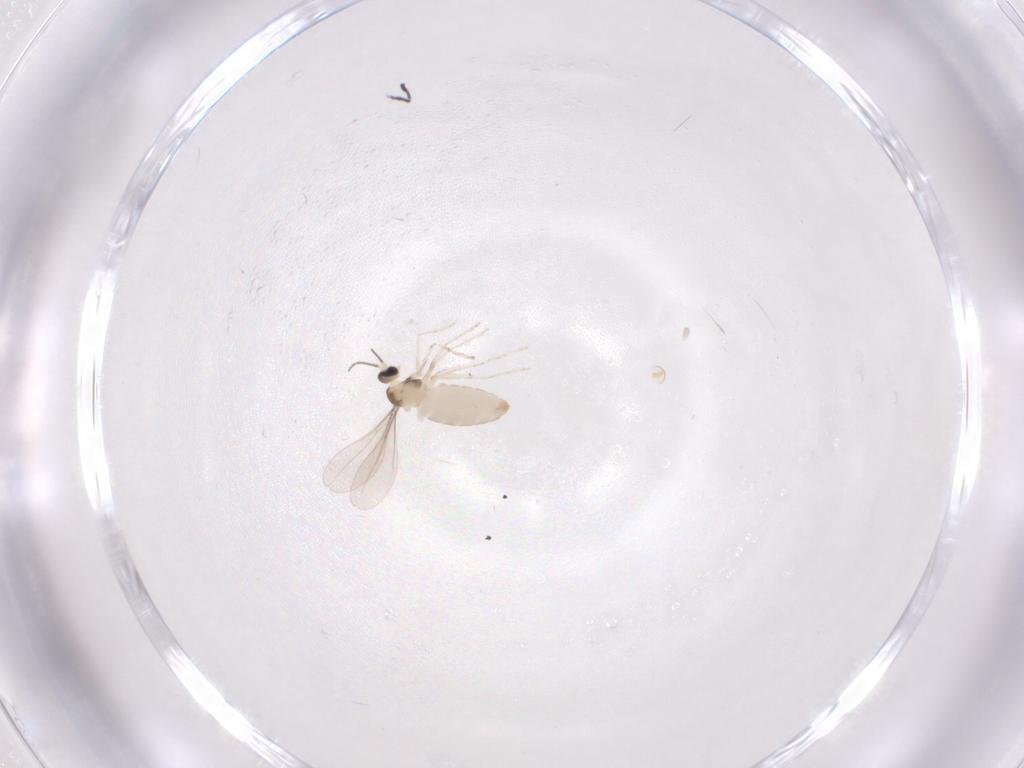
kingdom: Animalia
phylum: Arthropoda
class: Insecta
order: Diptera
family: Cecidomyiidae
